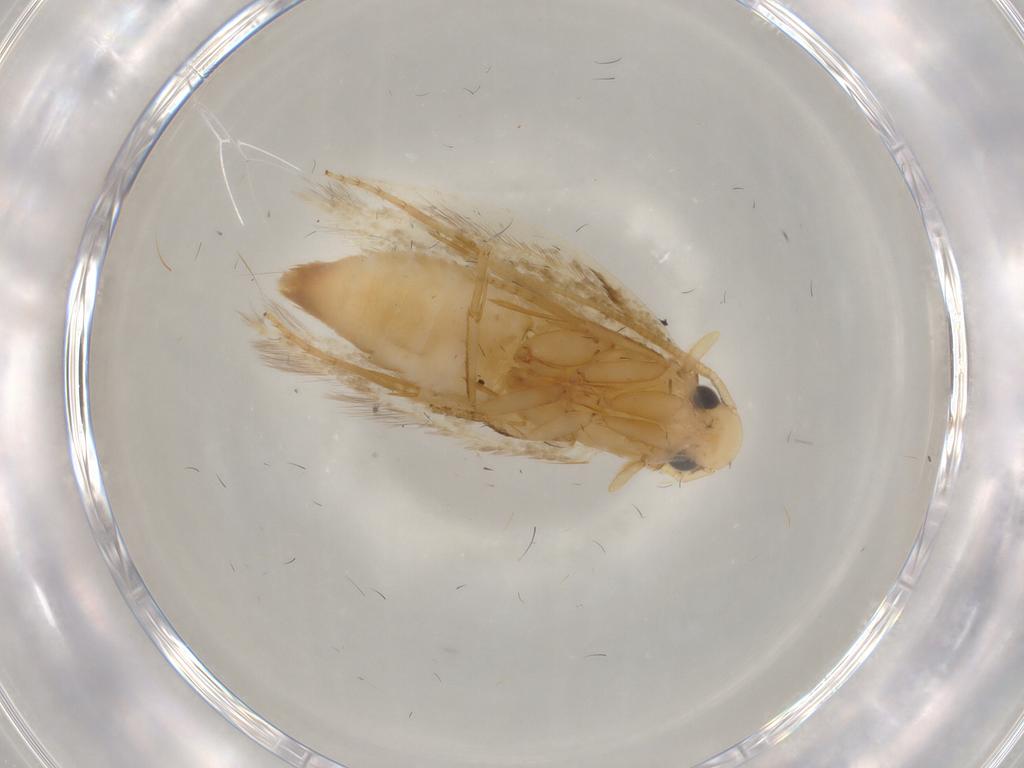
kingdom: Animalia
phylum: Arthropoda
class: Insecta
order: Lepidoptera
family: Tineidae
